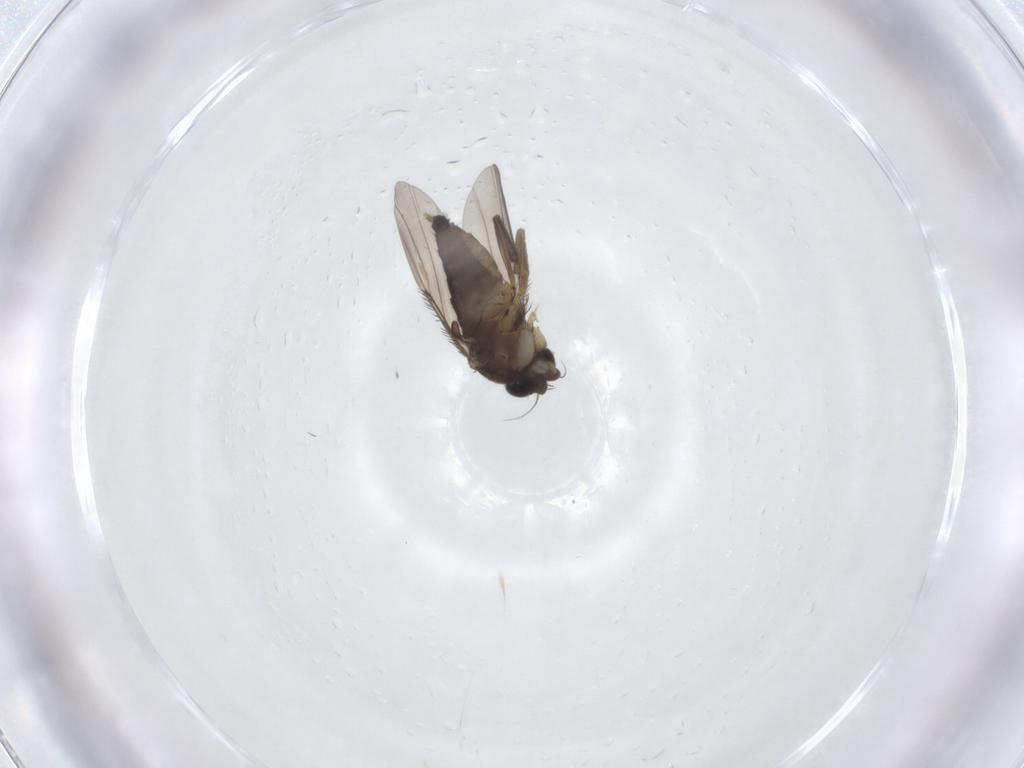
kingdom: Animalia
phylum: Arthropoda
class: Insecta
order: Diptera
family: Phoridae
